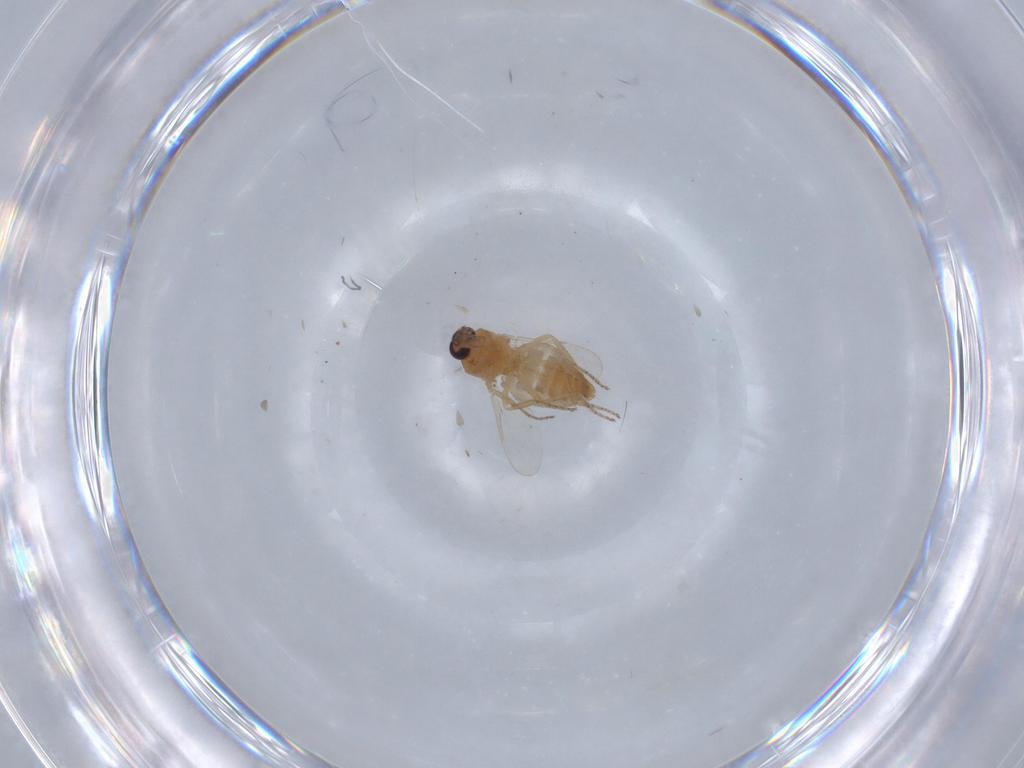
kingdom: Animalia
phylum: Arthropoda
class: Insecta
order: Diptera
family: Ceratopogonidae
